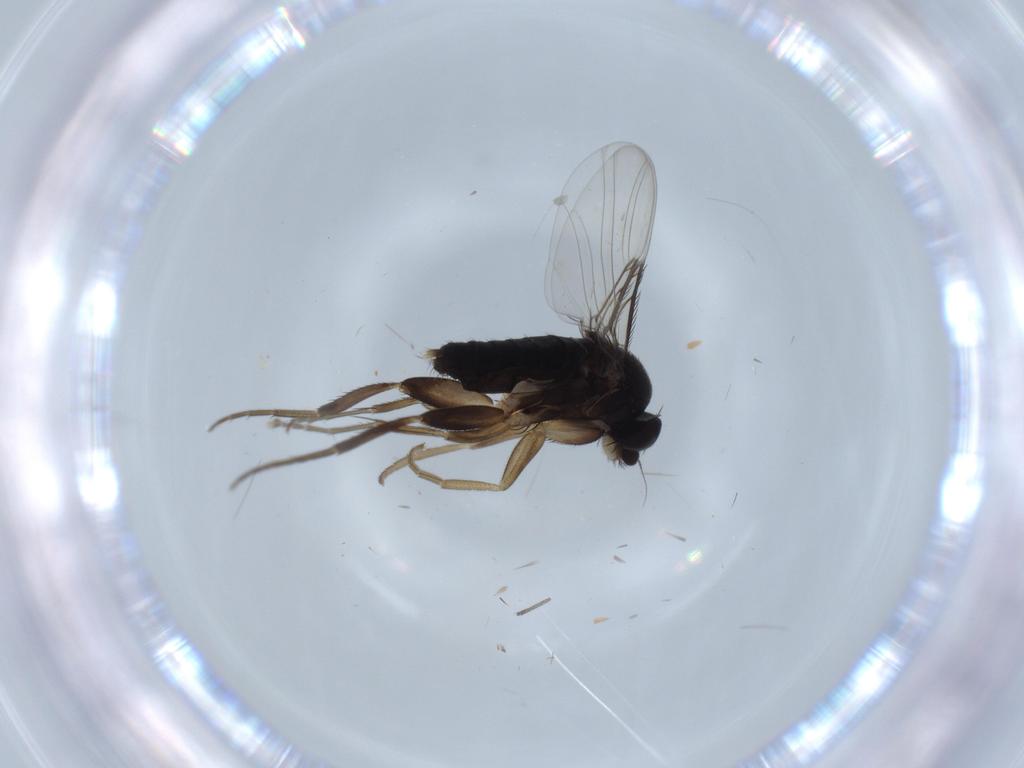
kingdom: Animalia
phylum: Arthropoda
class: Insecta
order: Diptera
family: Phoridae
